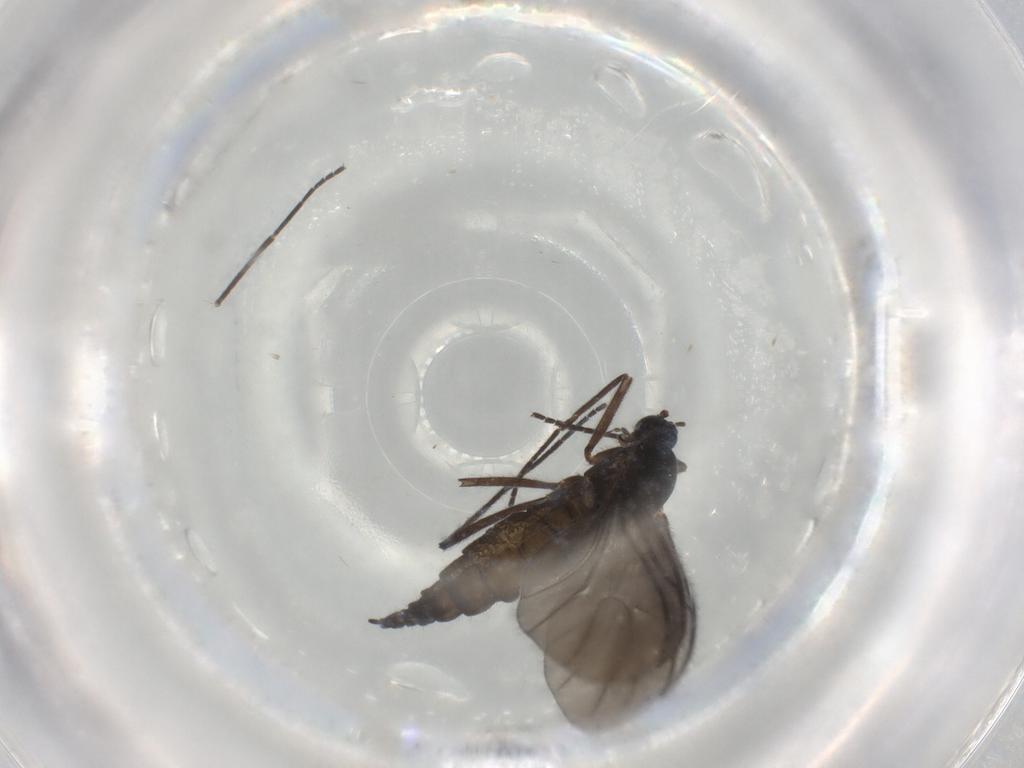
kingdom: Animalia
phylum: Arthropoda
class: Insecta
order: Diptera
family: Sciaridae
